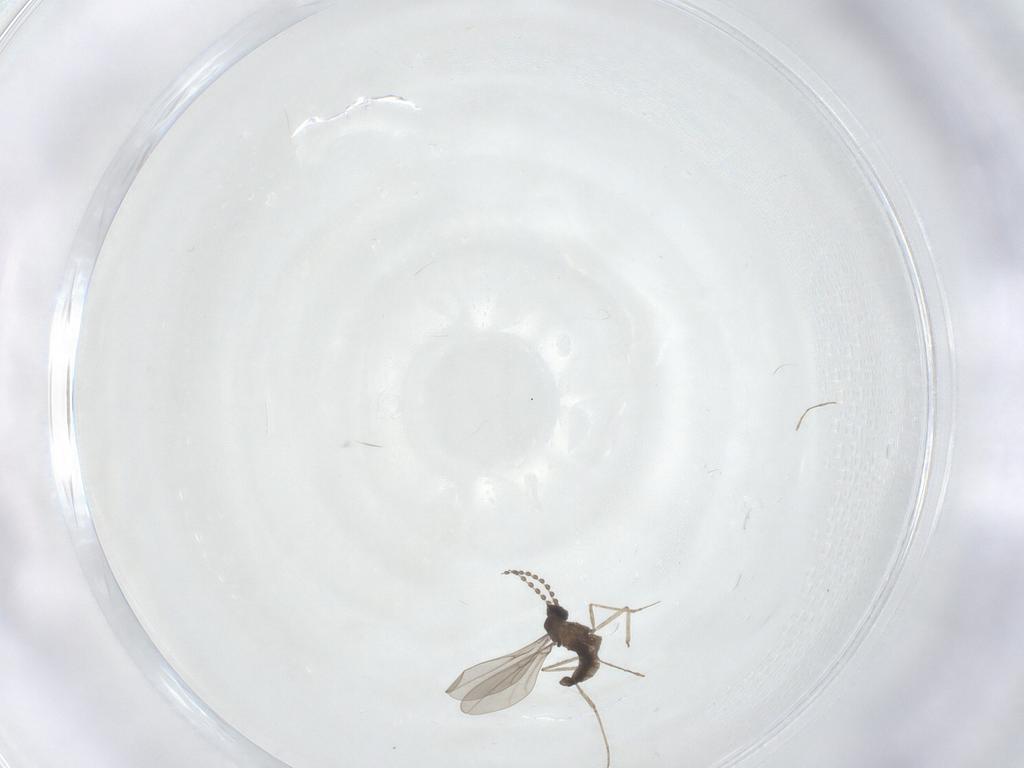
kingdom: Animalia
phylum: Arthropoda
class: Insecta
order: Diptera
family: Cecidomyiidae
